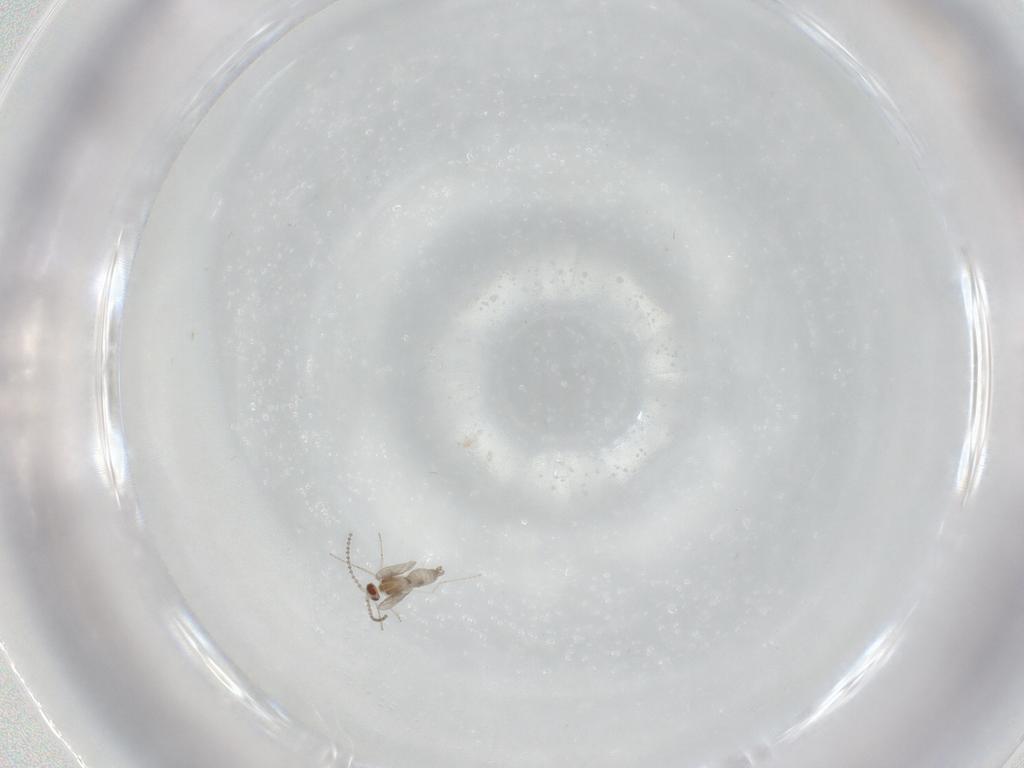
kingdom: Animalia
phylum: Arthropoda
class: Insecta
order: Diptera
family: Cecidomyiidae
